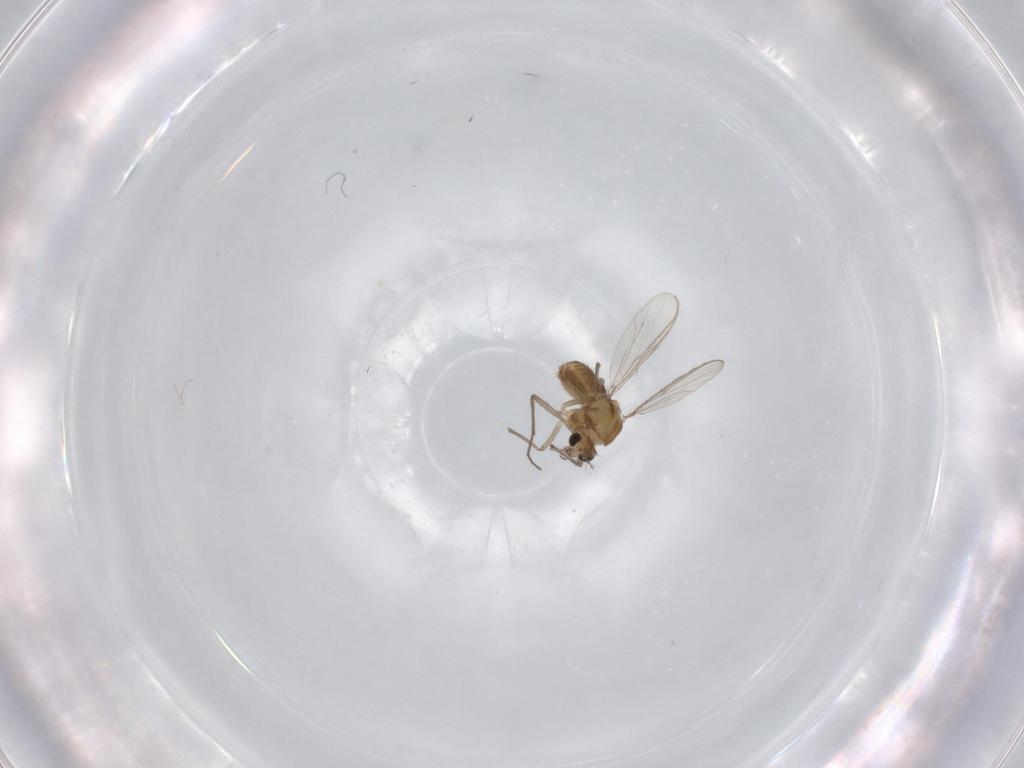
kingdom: Animalia
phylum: Arthropoda
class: Insecta
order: Diptera
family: Chironomidae
